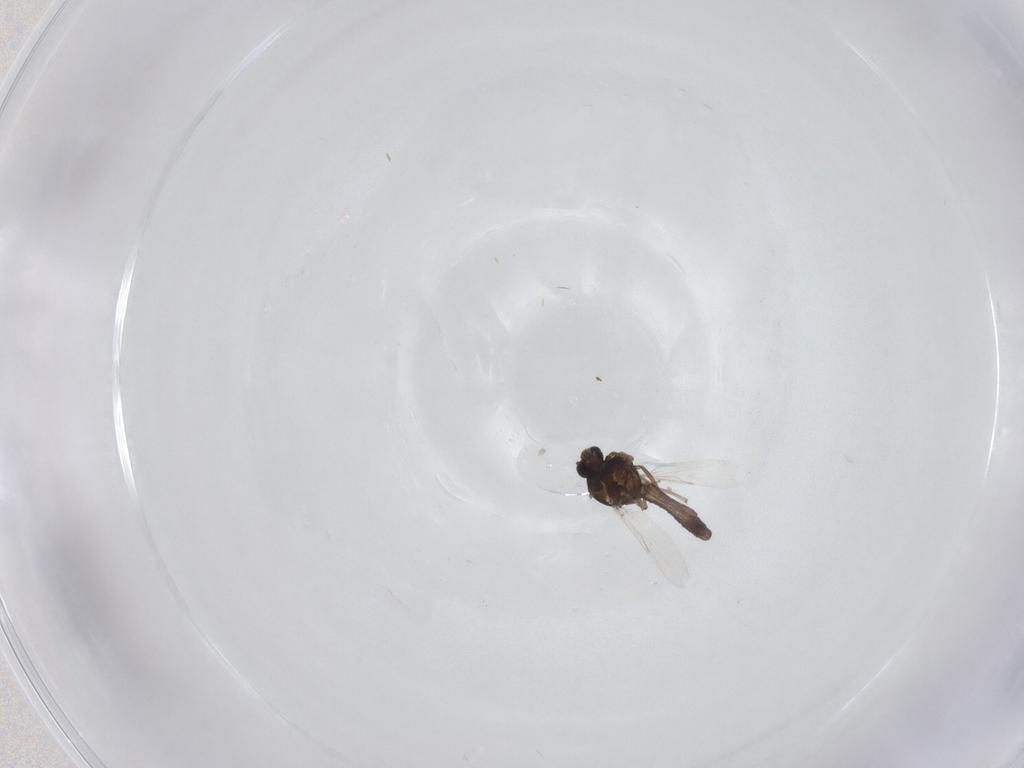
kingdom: Animalia
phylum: Arthropoda
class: Insecta
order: Diptera
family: Ceratopogonidae
